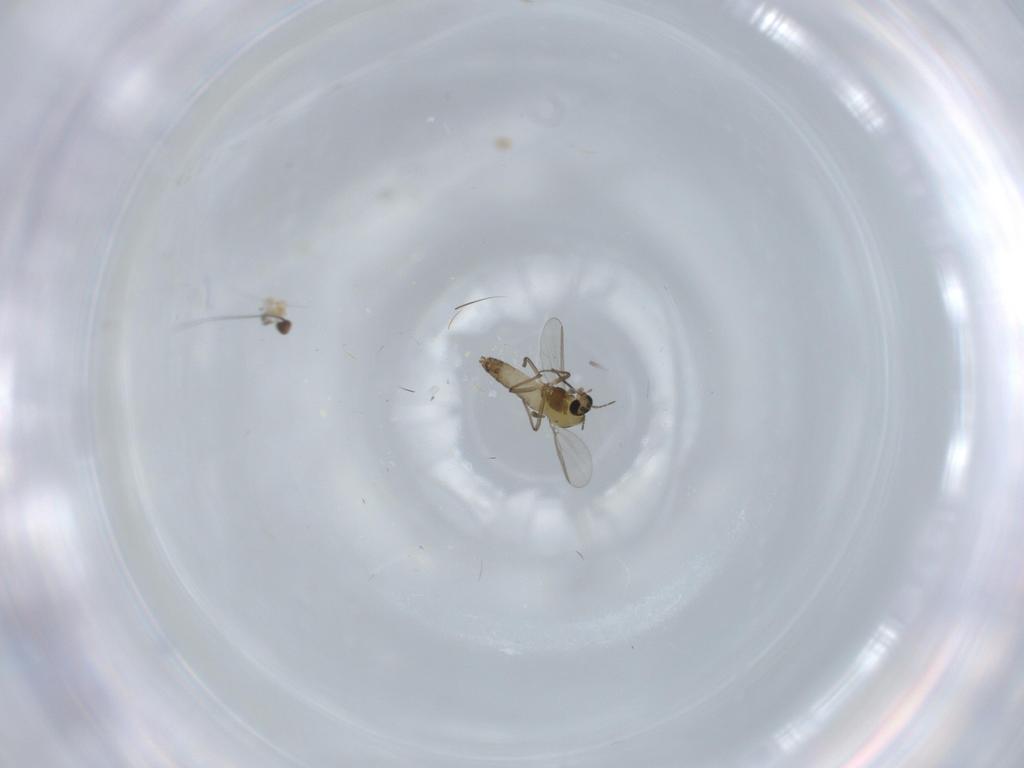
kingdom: Animalia
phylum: Arthropoda
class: Insecta
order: Diptera
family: Chironomidae
